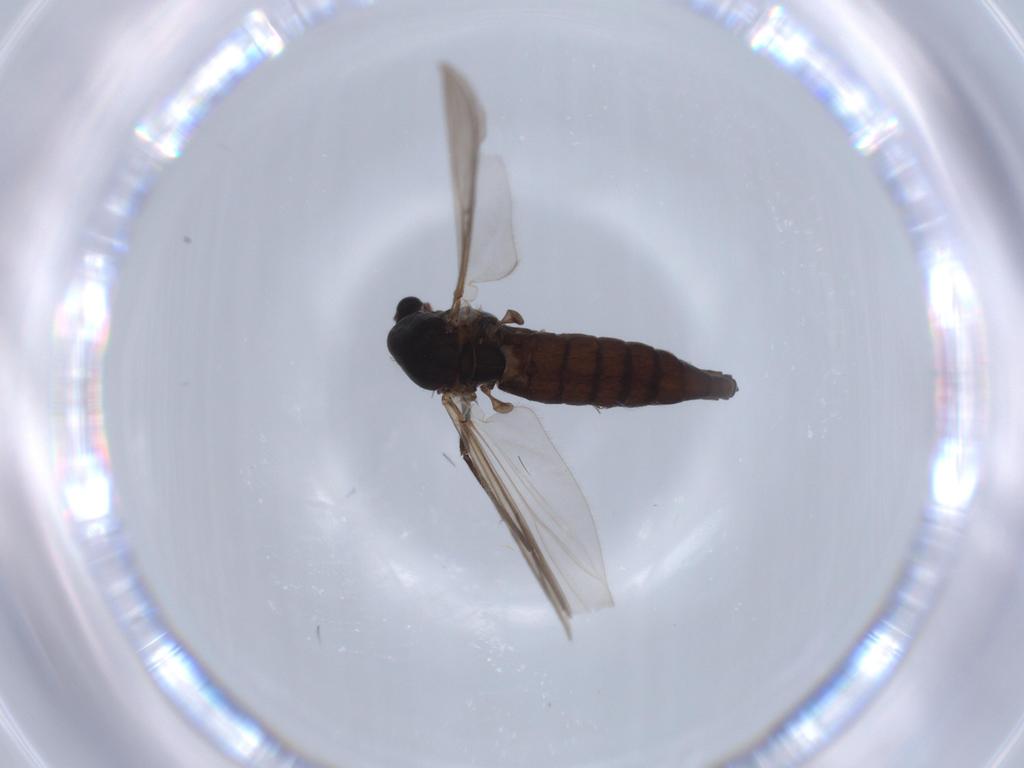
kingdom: Animalia
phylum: Arthropoda
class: Insecta
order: Diptera
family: Chironomidae
